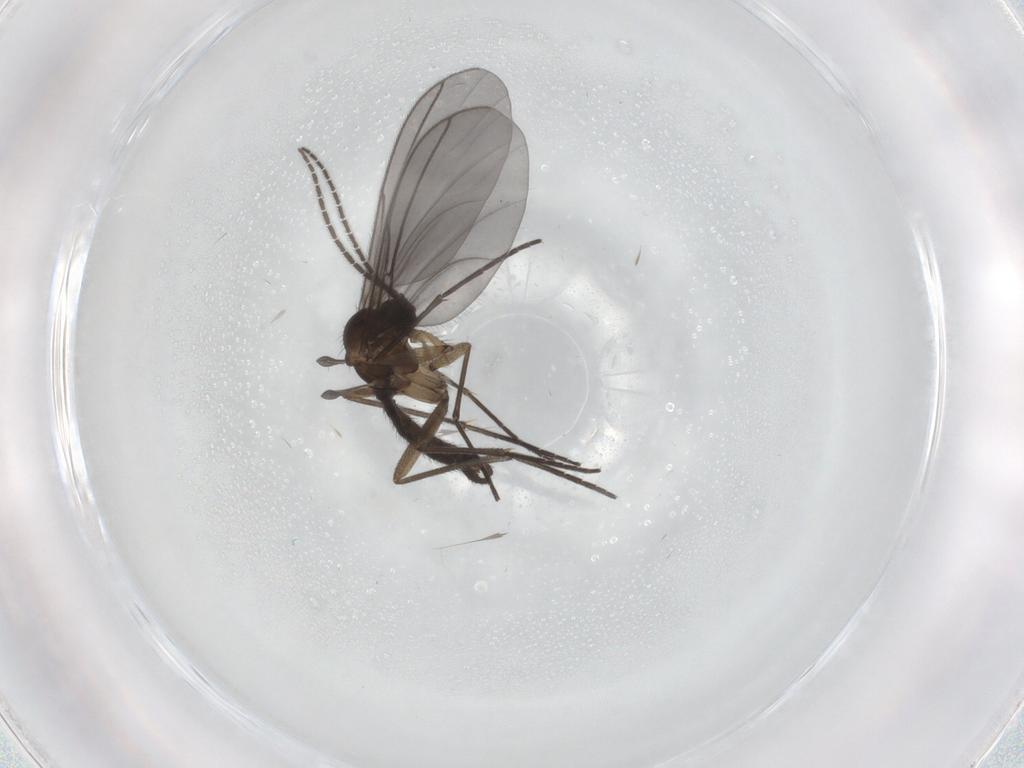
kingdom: Animalia
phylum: Arthropoda
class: Insecta
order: Diptera
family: Sciaridae
